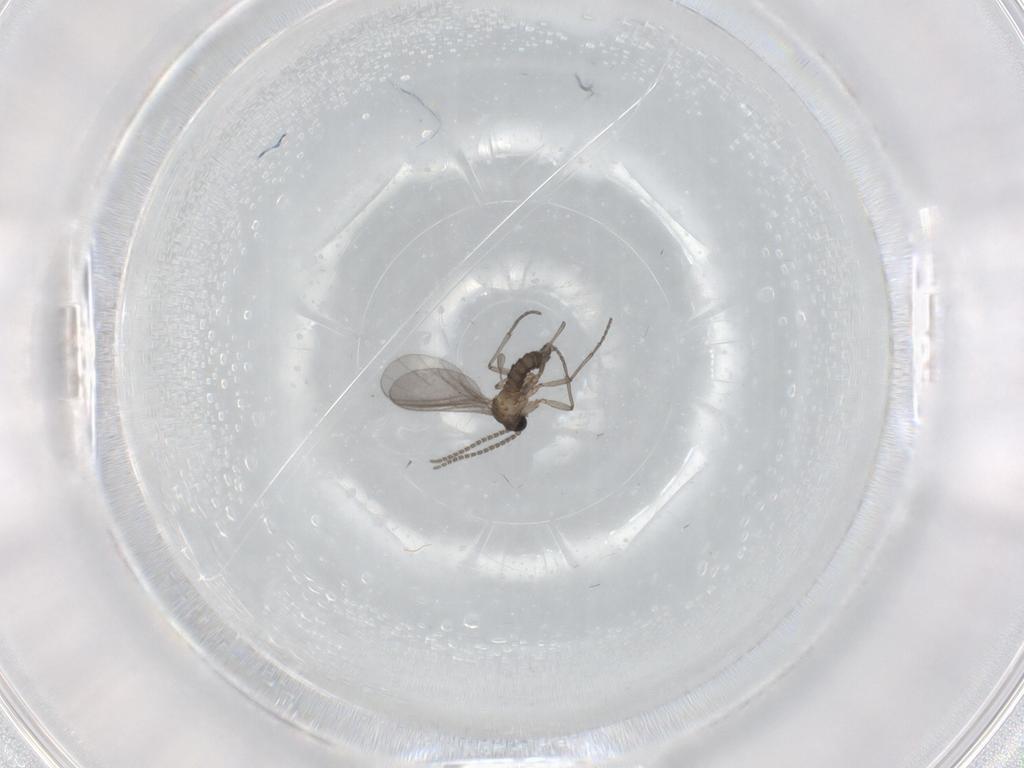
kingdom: Animalia
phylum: Arthropoda
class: Insecta
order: Diptera
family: Sciaridae
